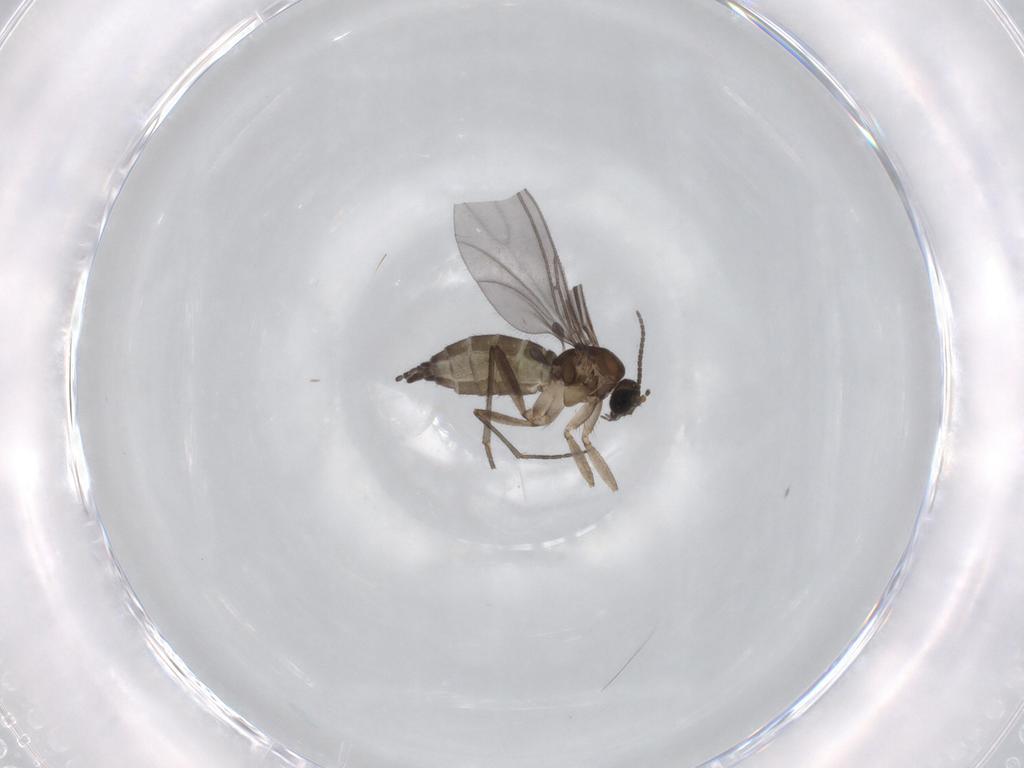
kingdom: Animalia
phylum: Arthropoda
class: Insecta
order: Diptera
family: Sciaridae
